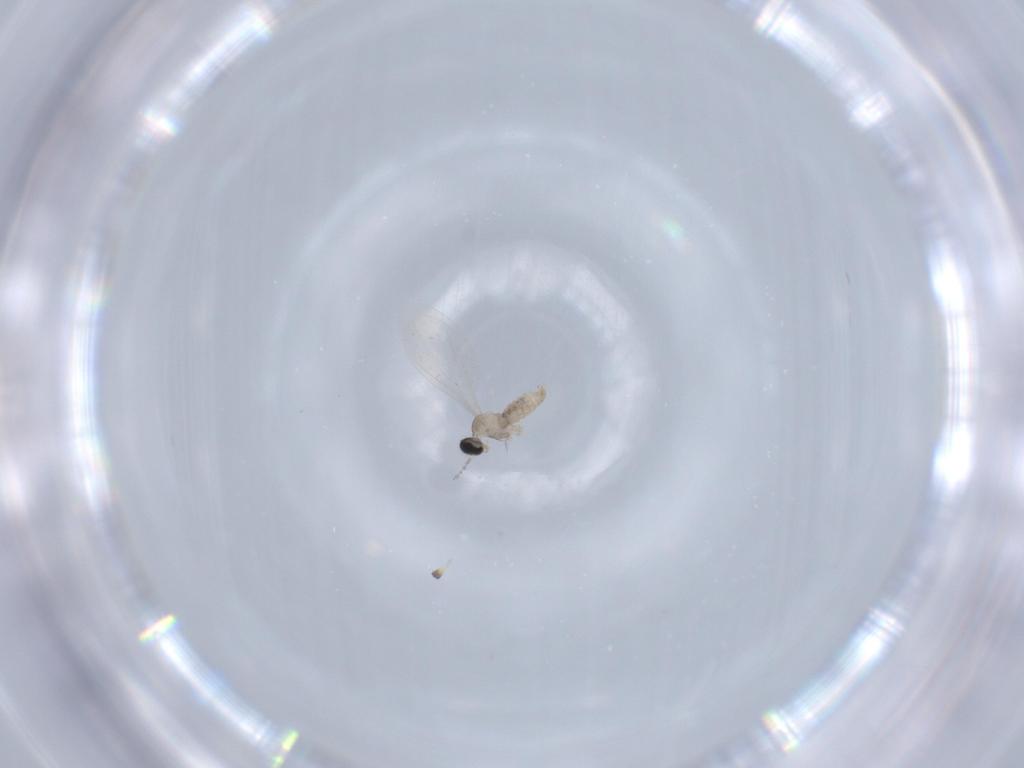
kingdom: Animalia
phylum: Arthropoda
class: Insecta
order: Diptera
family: Cecidomyiidae
